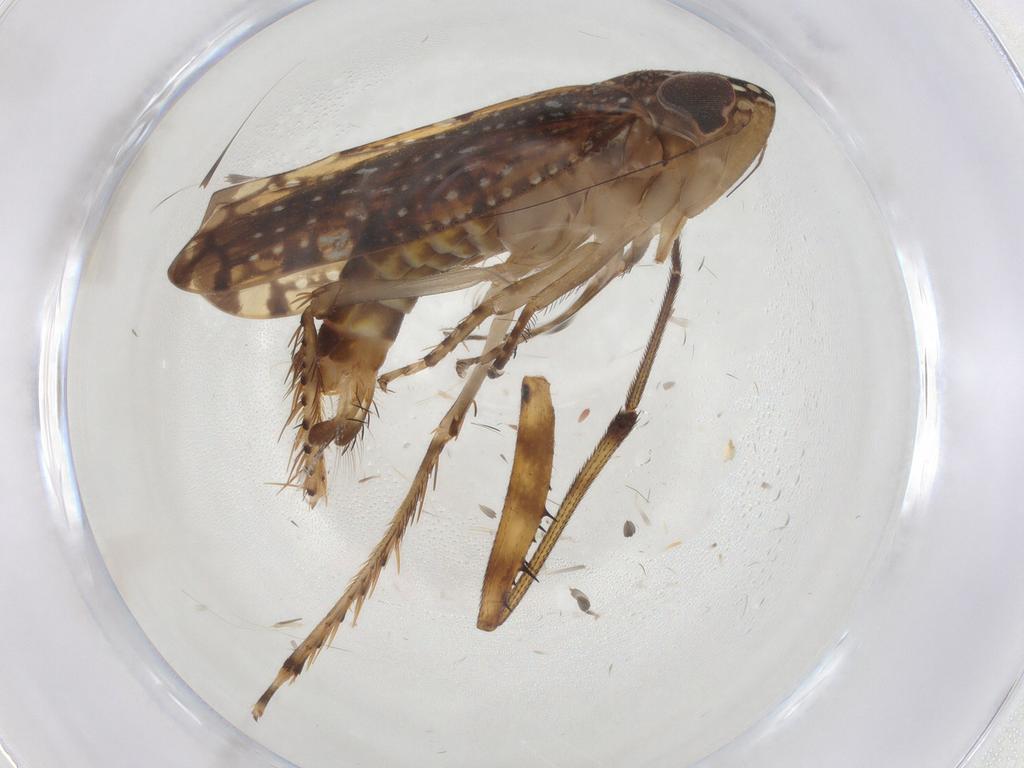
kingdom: Animalia
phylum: Arthropoda
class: Insecta
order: Hemiptera
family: Cicadellidae
